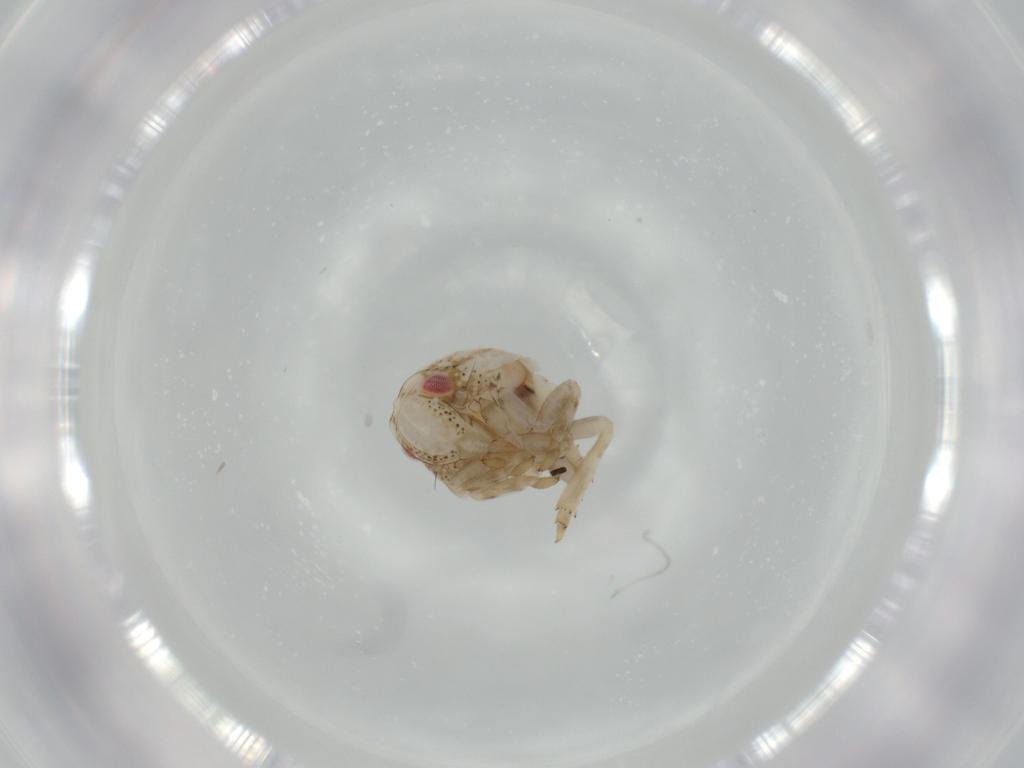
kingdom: Animalia
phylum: Arthropoda
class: Insecta
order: Hemiptera
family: Acanaloniidae
